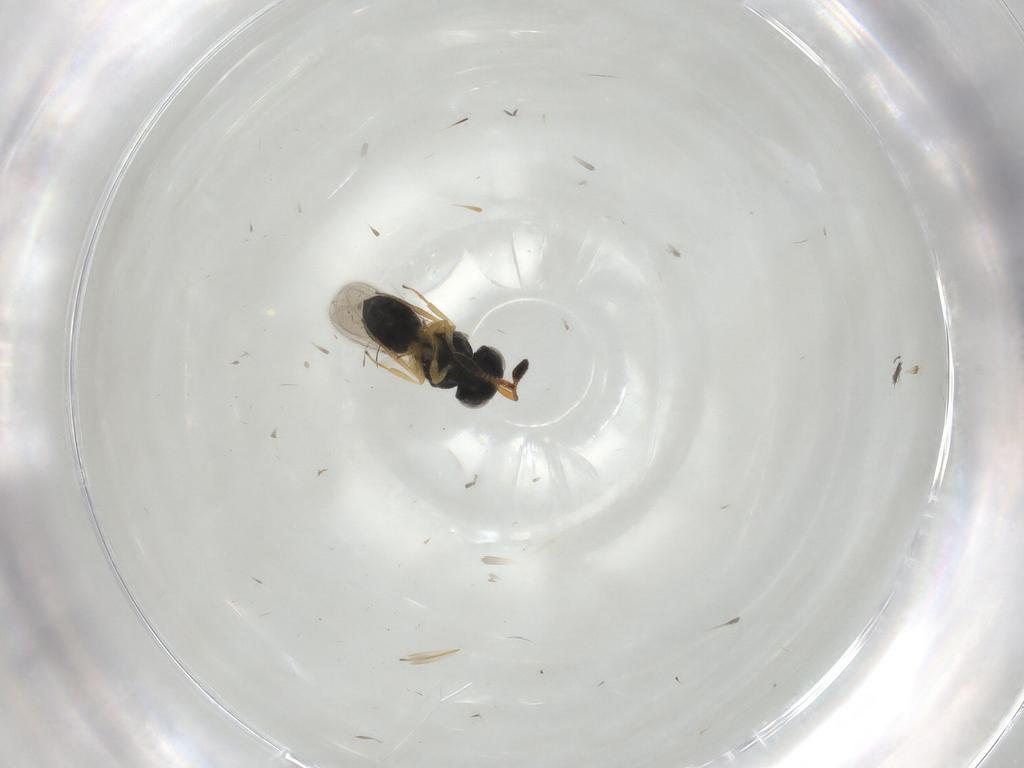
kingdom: Animalia
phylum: Arthropoda
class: Insecta
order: Hymenoptera
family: Scelionidae
